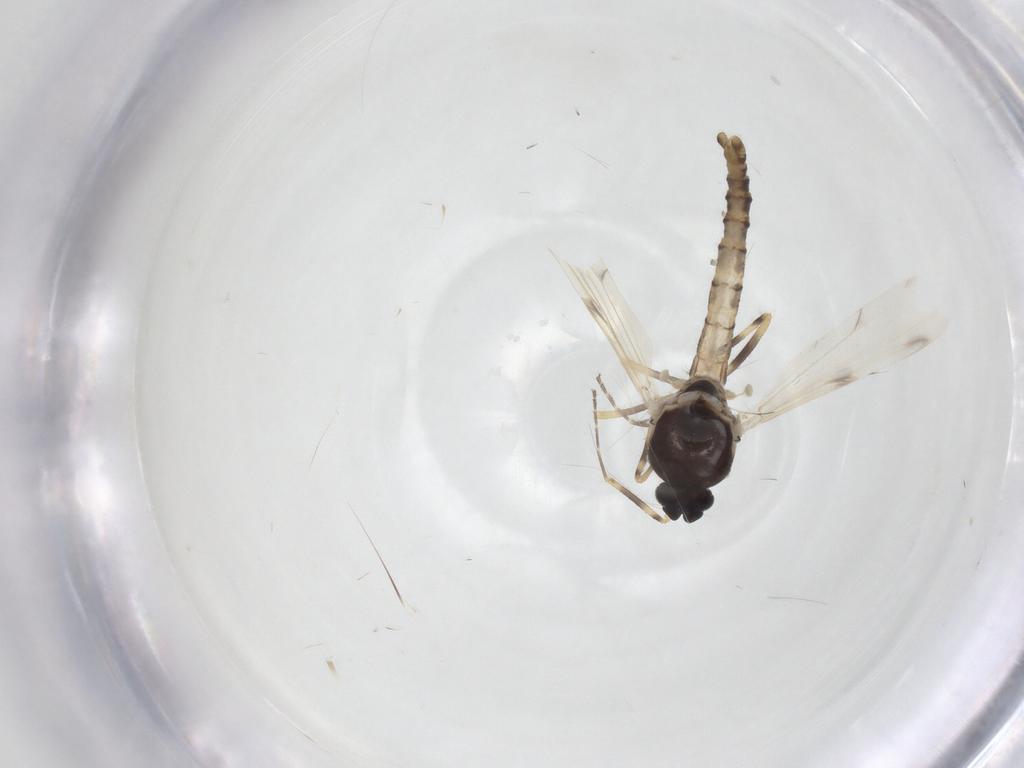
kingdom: Animalia
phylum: Arthropoda
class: Insecta
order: Diptera
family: Ceratopogonidae
